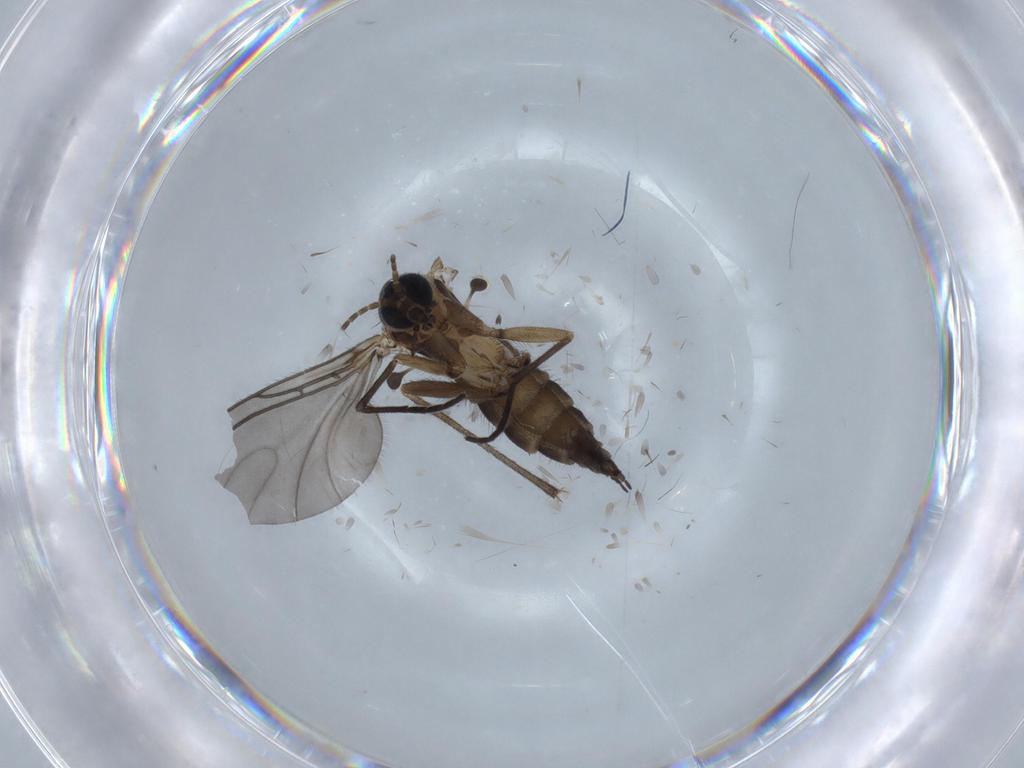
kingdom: Animalia
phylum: Arthropoda
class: Insecta
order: Diptera
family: Sciaridae
